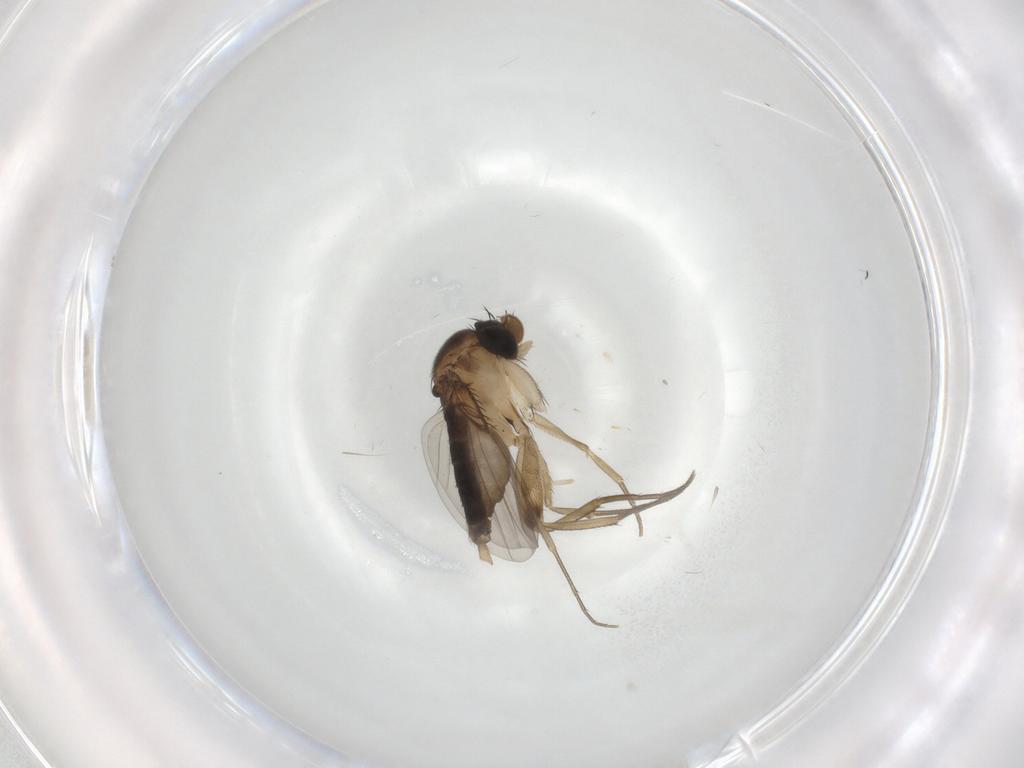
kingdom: Animalia
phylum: Arthropoda
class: Insecta
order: Diptera
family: Phoridae
